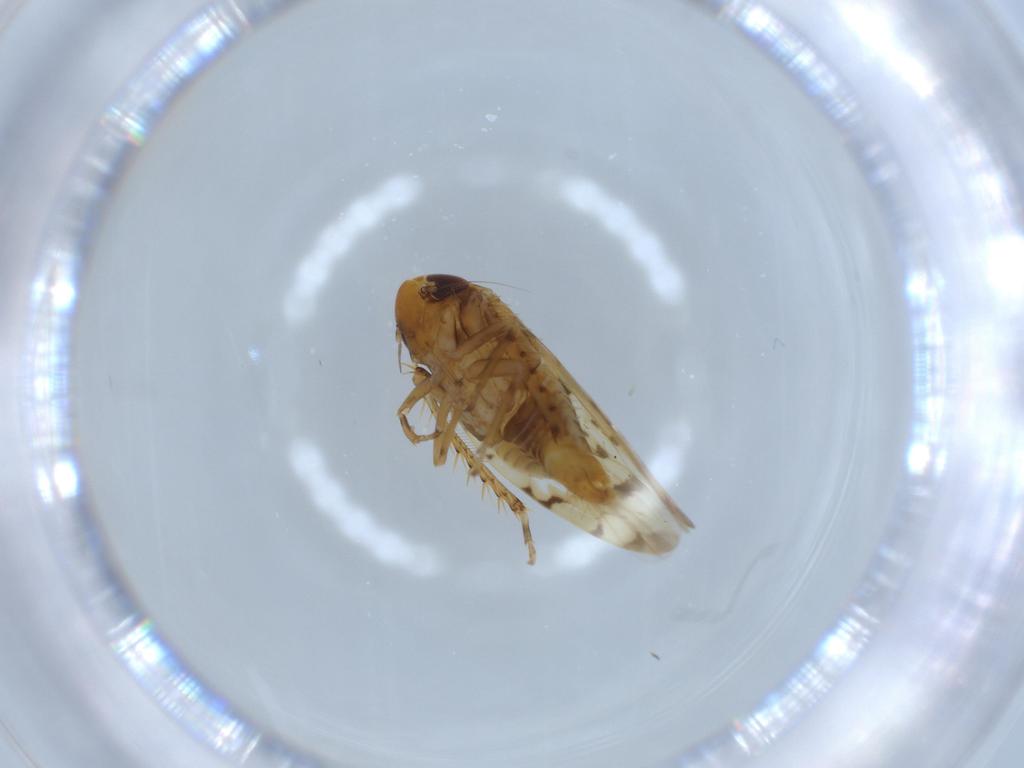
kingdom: Animalia
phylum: Arthropoda
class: Insecta
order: Hemiptera
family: Cicadellidae
